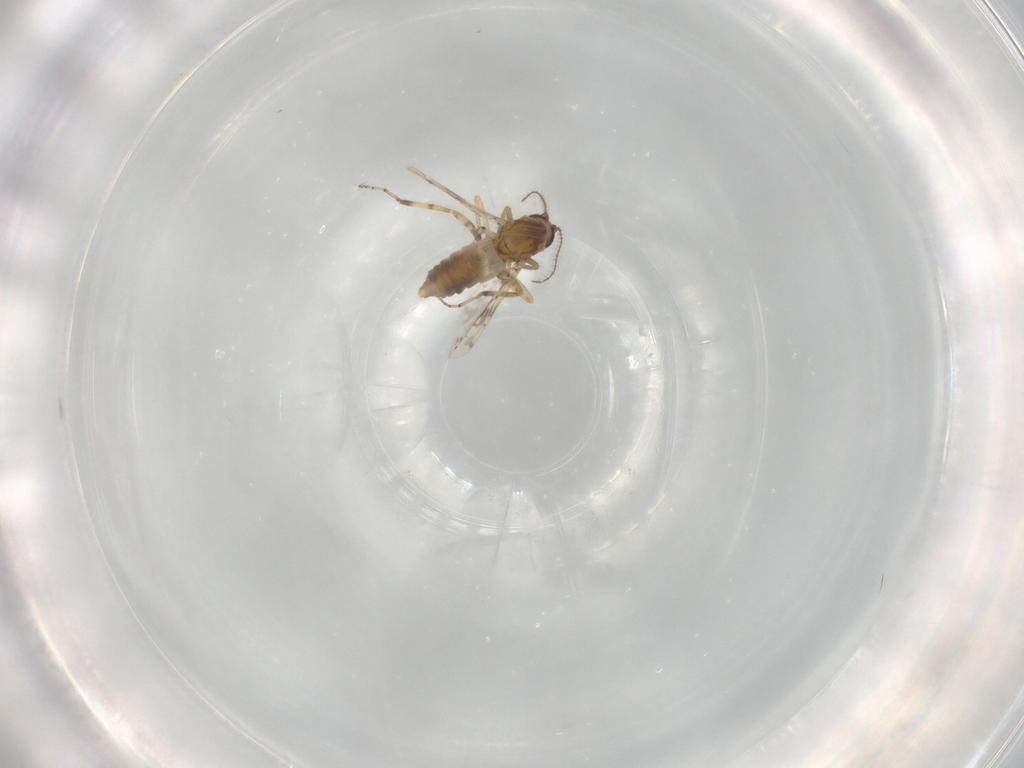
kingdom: Animalia
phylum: Arthropoda
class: Insecta
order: Diptera
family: Ceratopogonidae
